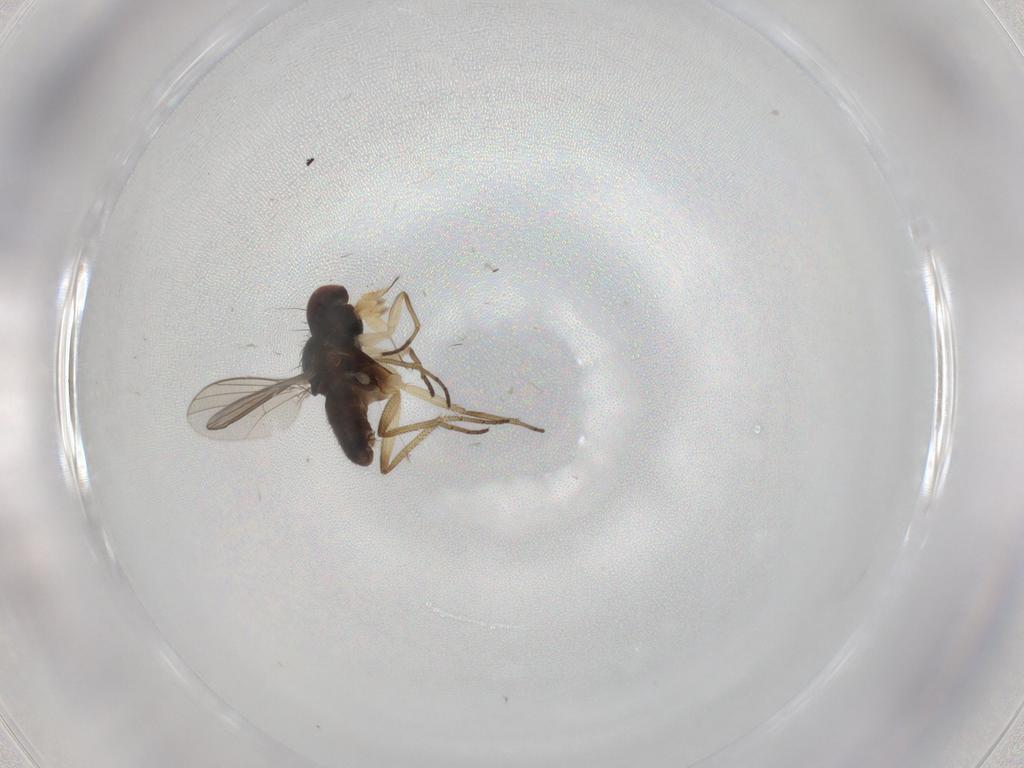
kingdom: Animalia
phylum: Arthropoda
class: Insecta
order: Diptera
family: Dolichopodidae
